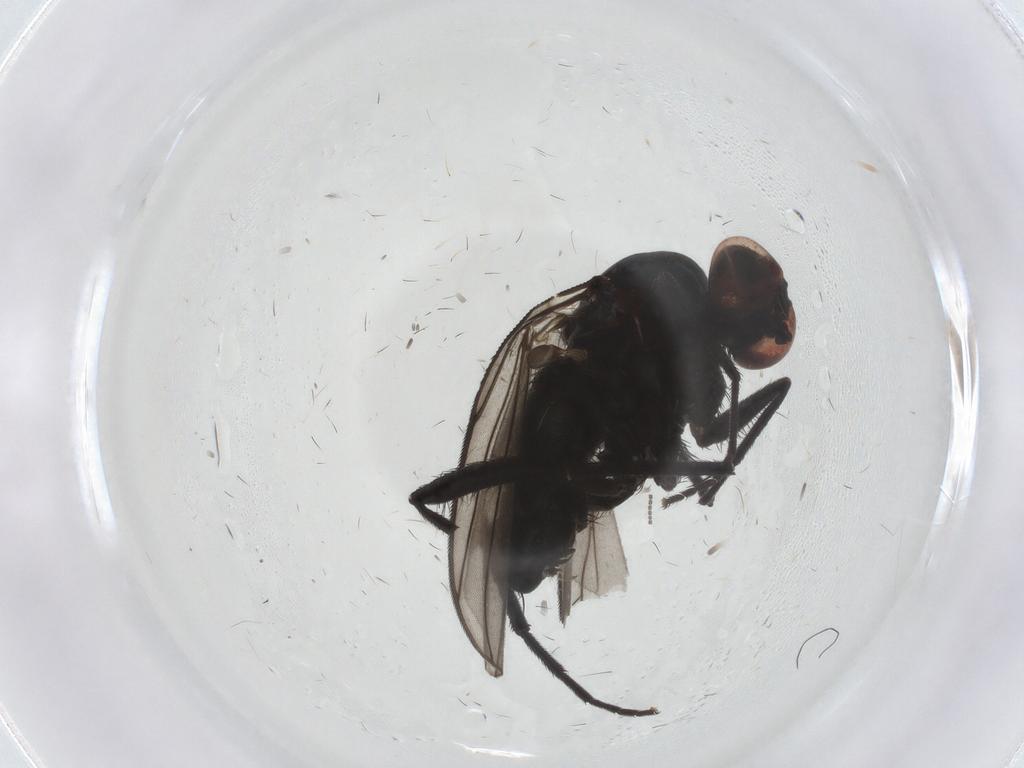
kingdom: Animalia
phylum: Arthropoda
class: Insecta
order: Diptera
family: Dolichopodidae
